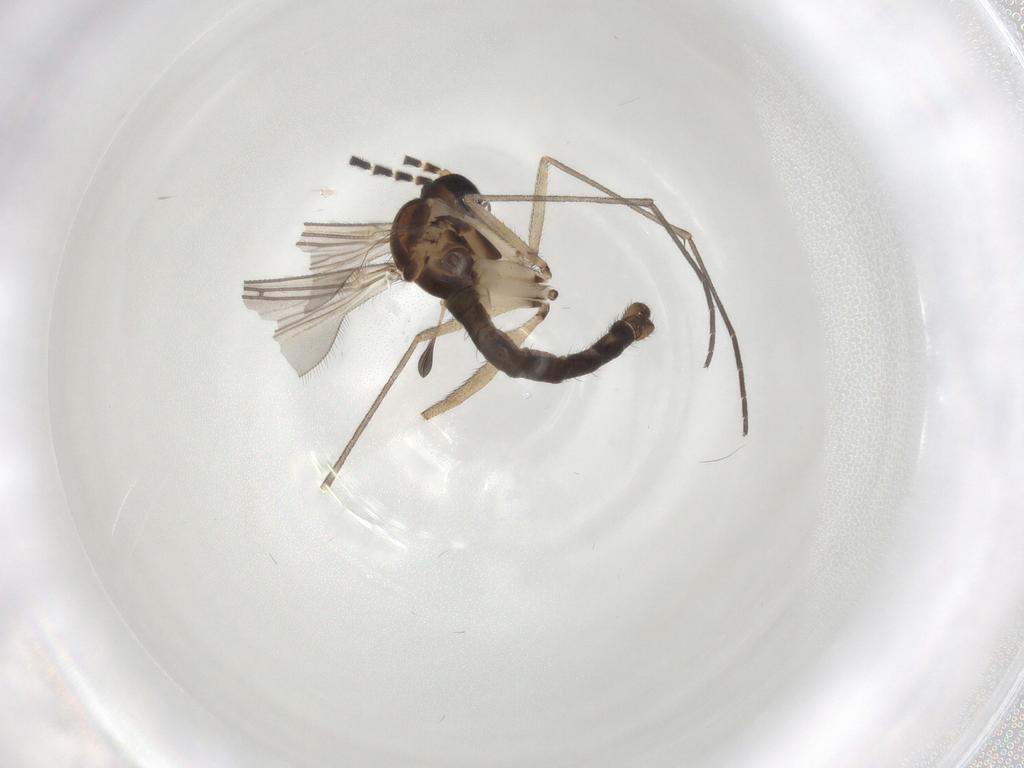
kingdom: Animalia
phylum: Arthropoda
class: Insecta
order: Diptera
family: Sciaridae
